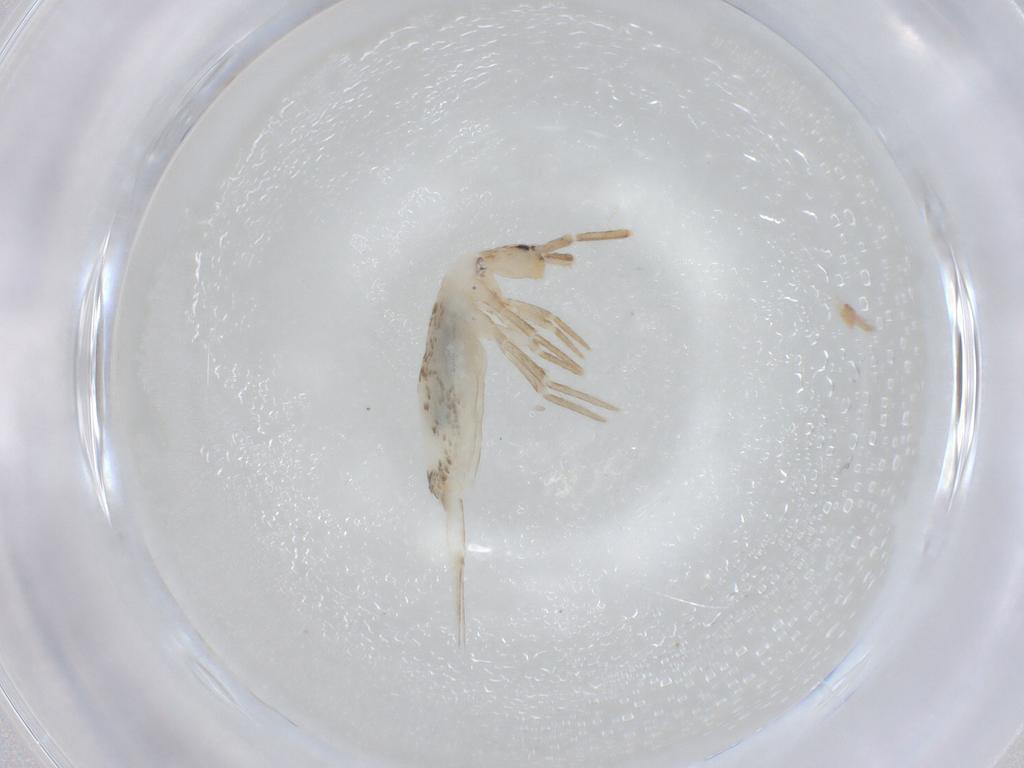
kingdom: Animalia
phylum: Arthropoda
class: Collembola
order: Entomobryomorpha
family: Entomobryidae
